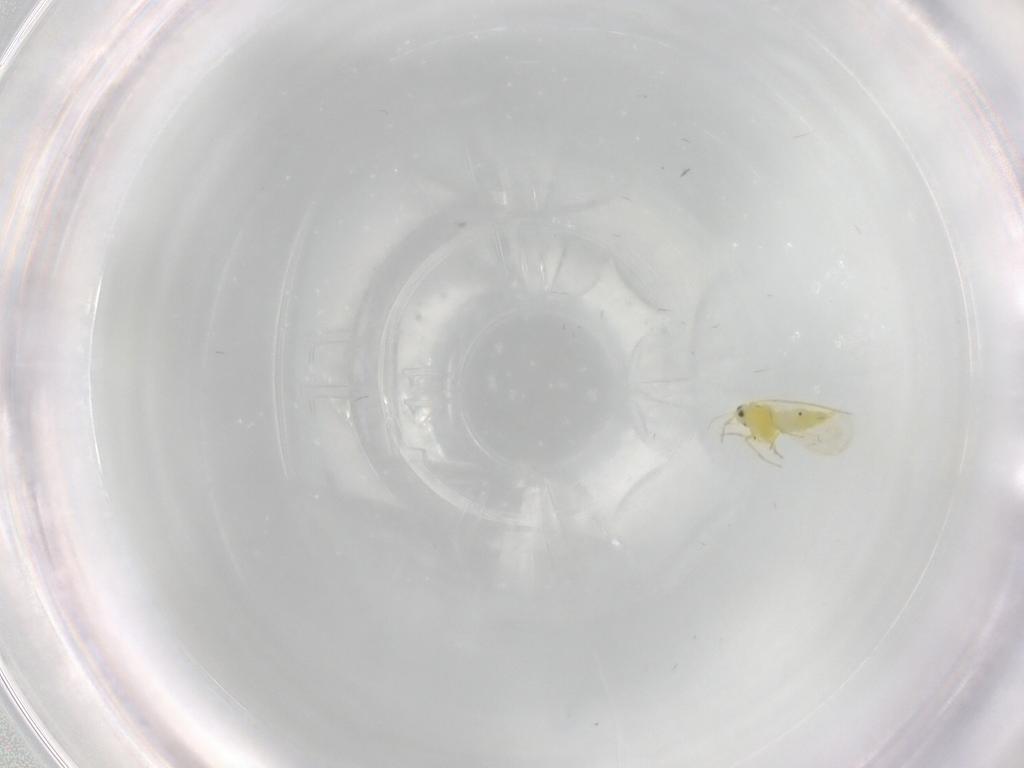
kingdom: Animalia
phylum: Arthropoda
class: Insecta
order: Hemiptera
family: Aleyrodidae
